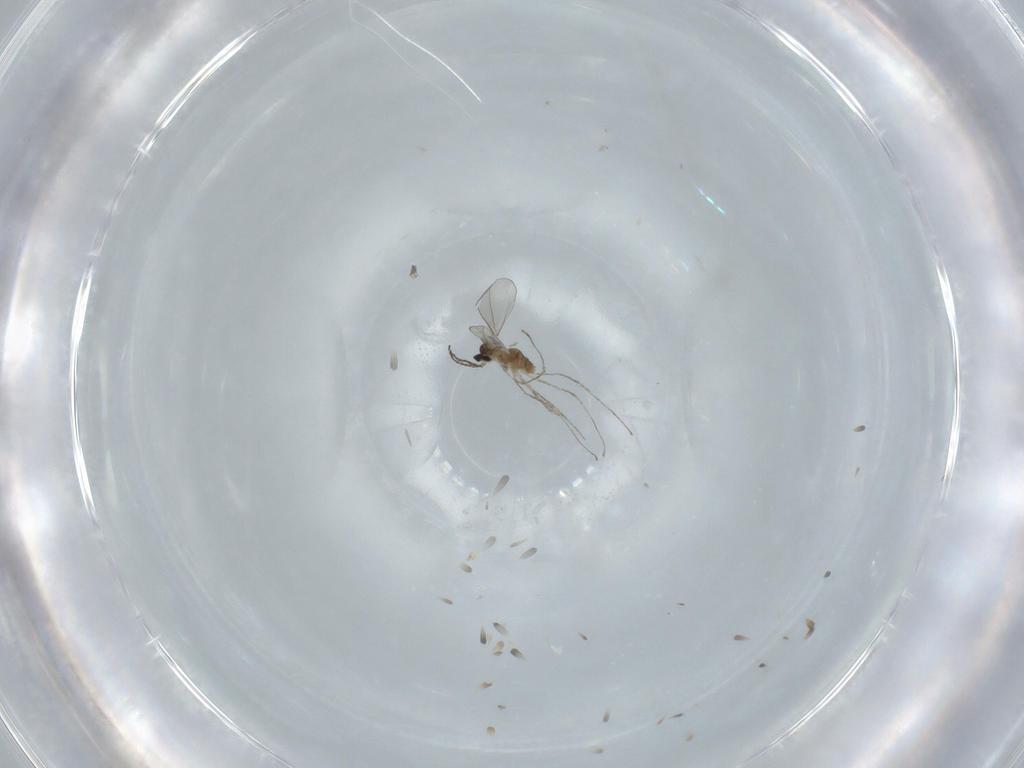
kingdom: Animalia
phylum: Arthropoda
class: Insecta
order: Diptera
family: Cecidomyiidae
